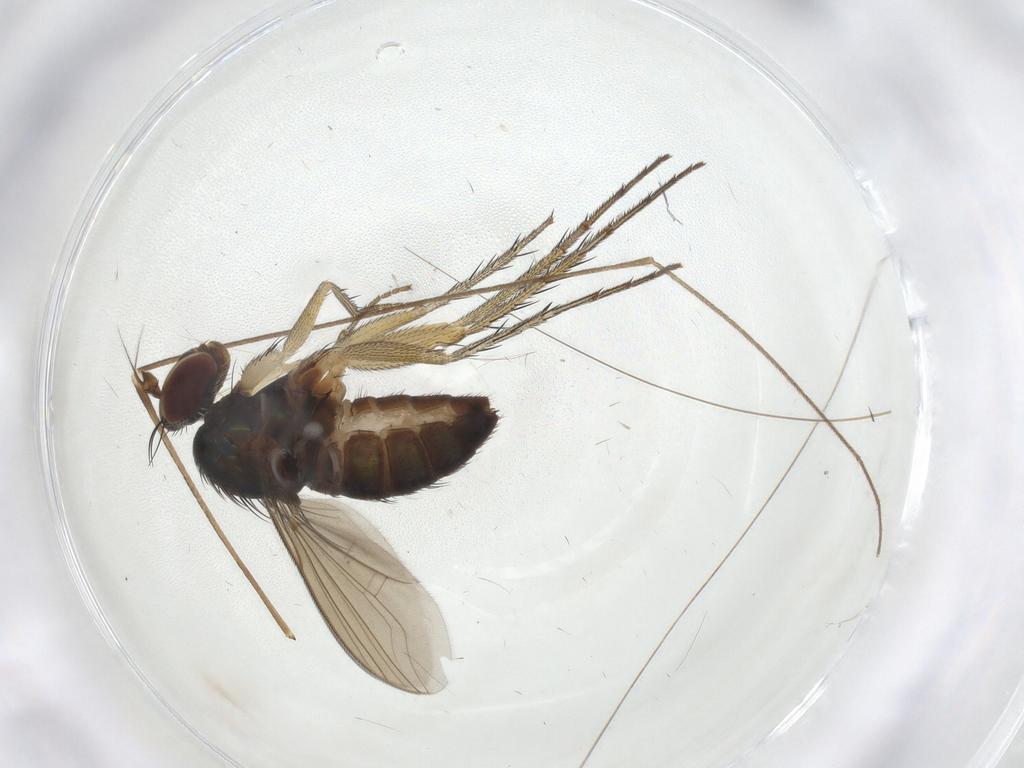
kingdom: Animalia
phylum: Arthropoda
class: Insecta
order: Diptera
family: Dolichopodidae
